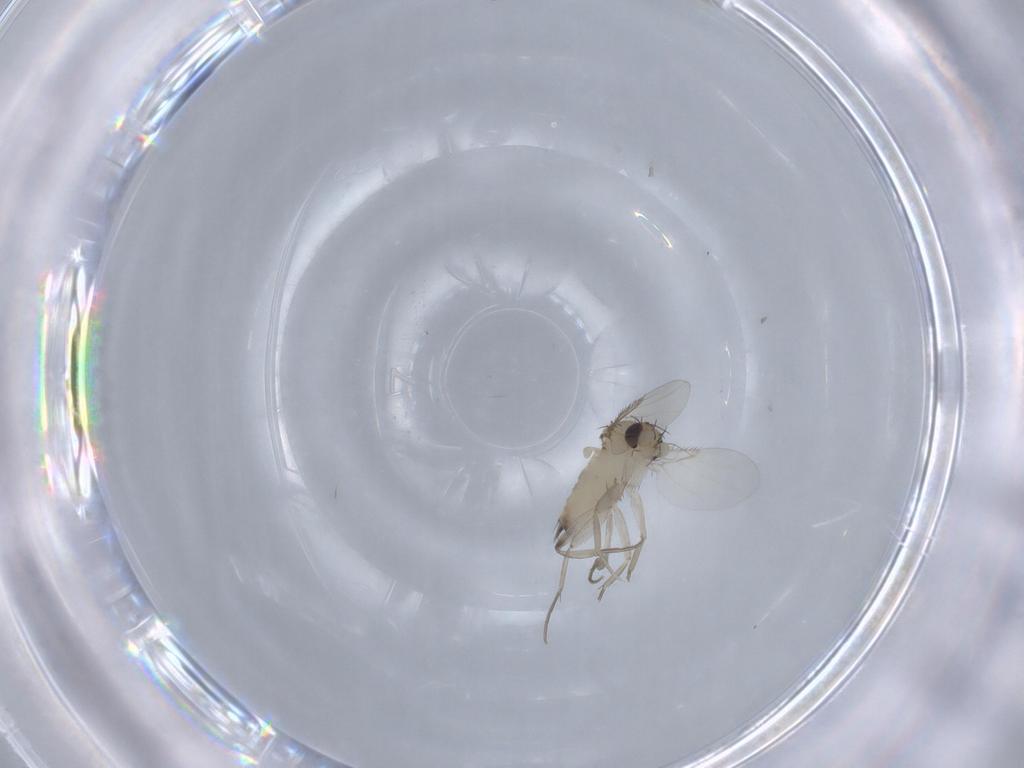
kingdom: Animalia
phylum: Arthropoda
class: Insecta
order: Diptera
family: Phoridae
